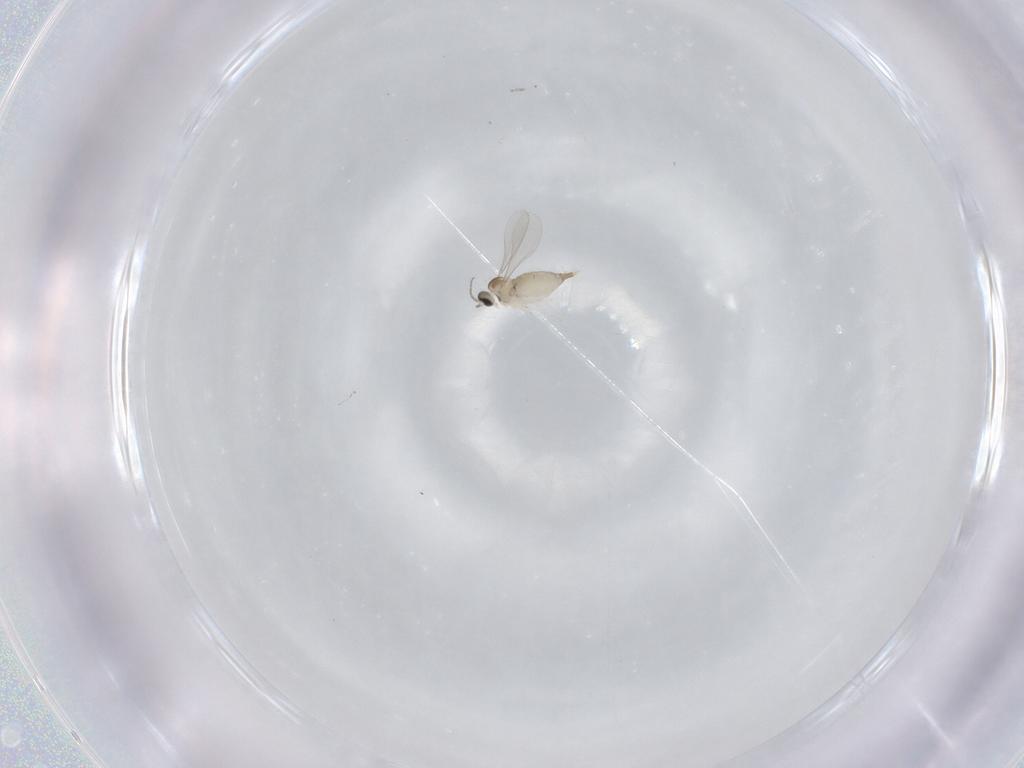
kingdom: Animalia
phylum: Arthropoda
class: Insecta
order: Diptera
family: Chironomidae
